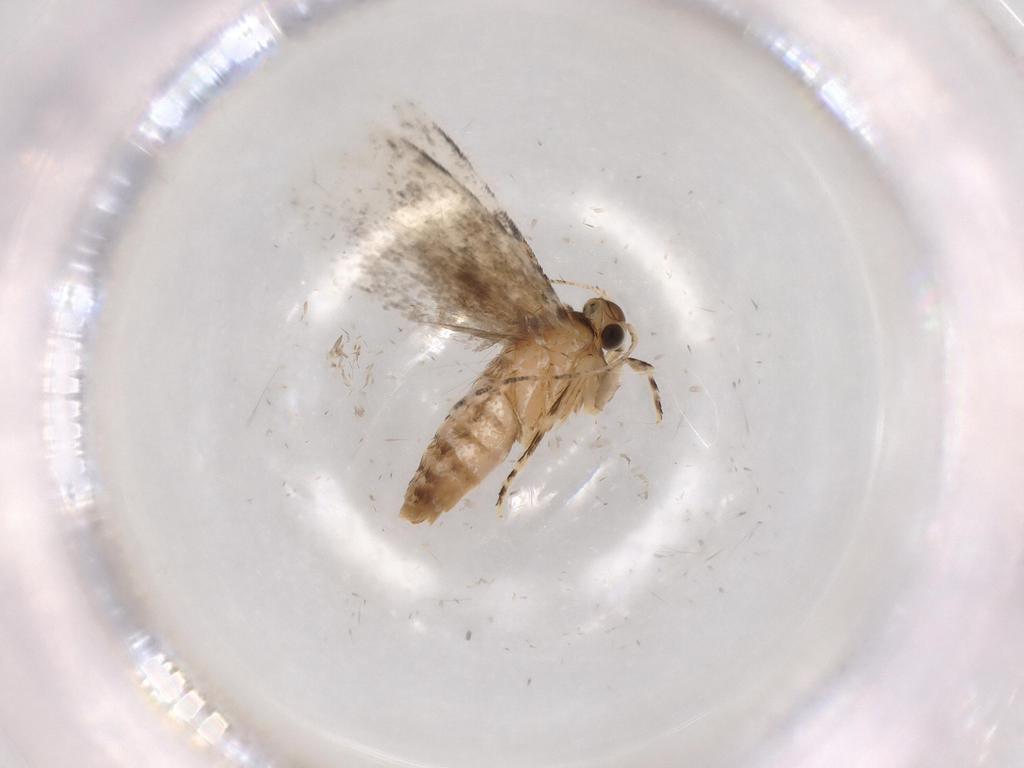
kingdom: Animalia
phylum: Arthropoda
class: Insecta
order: Lepidoptera
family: Tineidae
